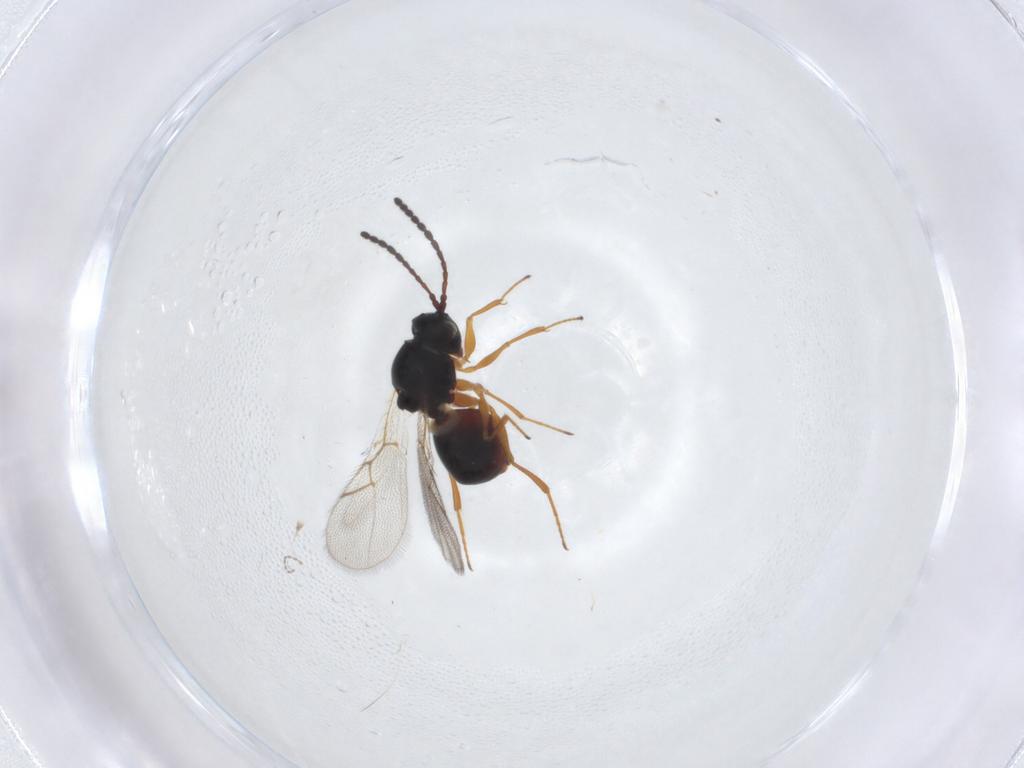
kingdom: Animalia
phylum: Arthropoda
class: Insecta
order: Hymenoptera
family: Figitidae
